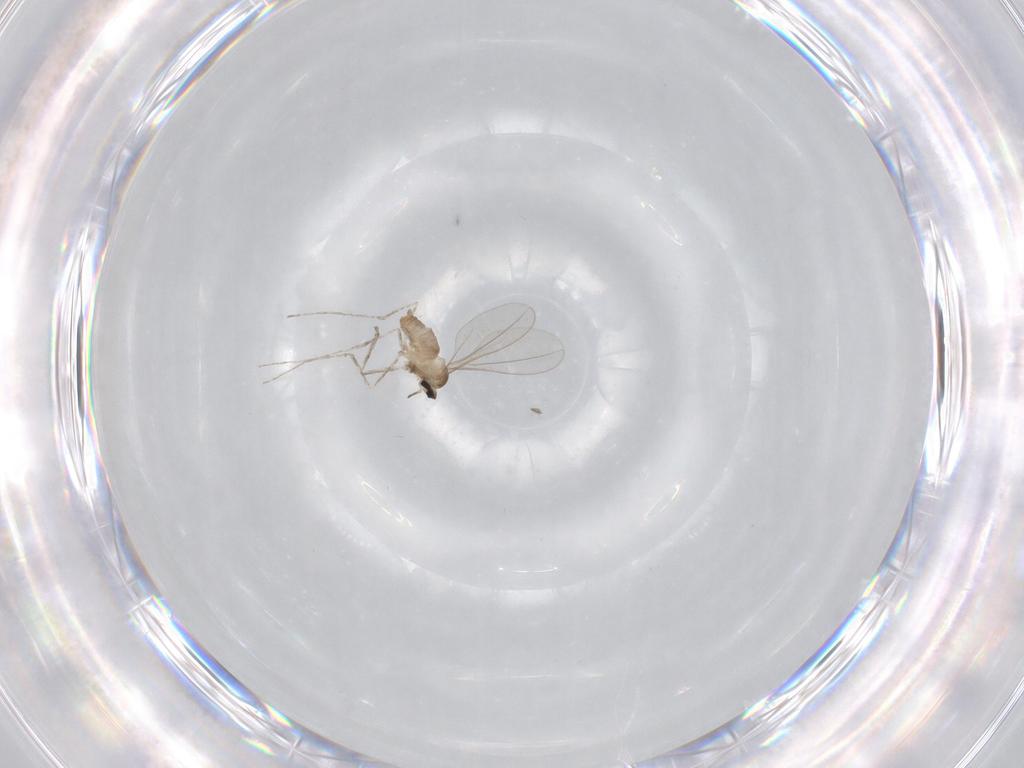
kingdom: Animalia
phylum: Arthropoda
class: Insecta
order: Diptera
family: Cecidomyiidae
